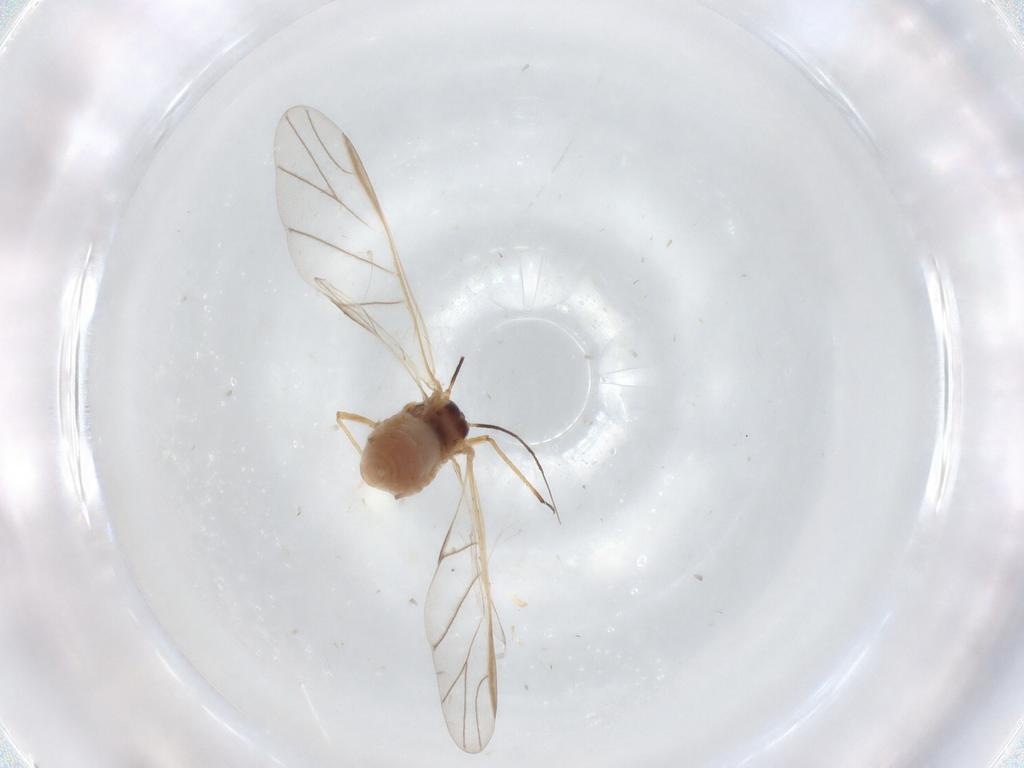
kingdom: Animalia
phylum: Arthropoda
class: Insecta
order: Hemiptera
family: Aphididae
